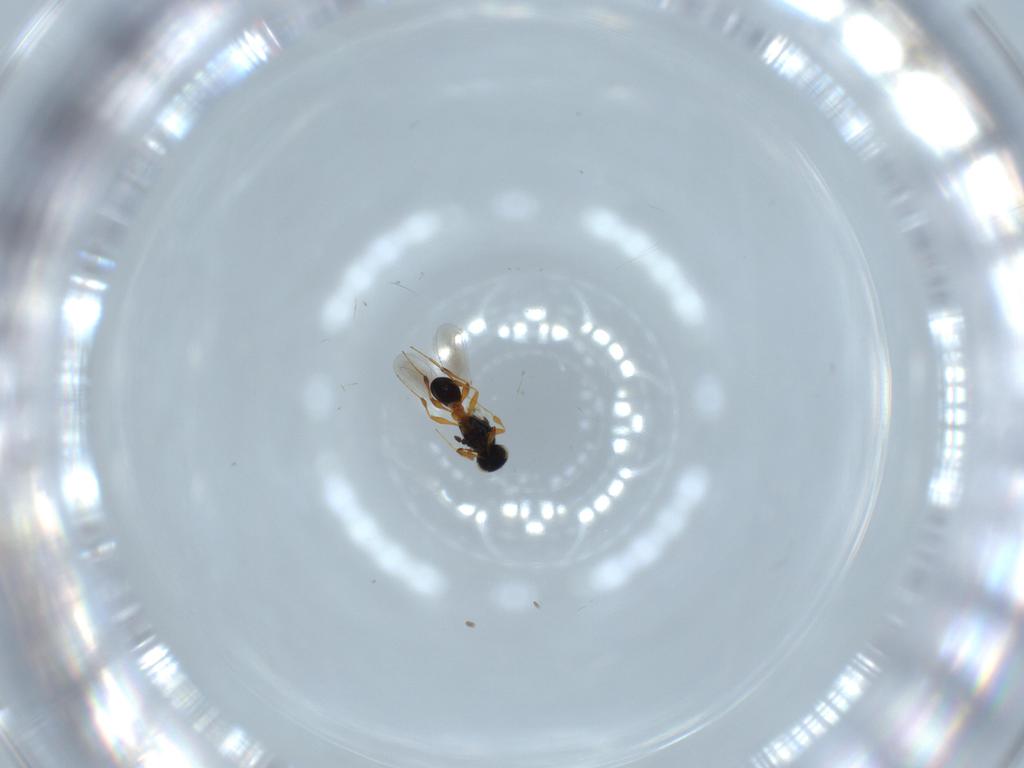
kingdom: Animalia
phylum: Arthropoda
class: Insecta
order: Hymenoptera
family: Platygastridae
